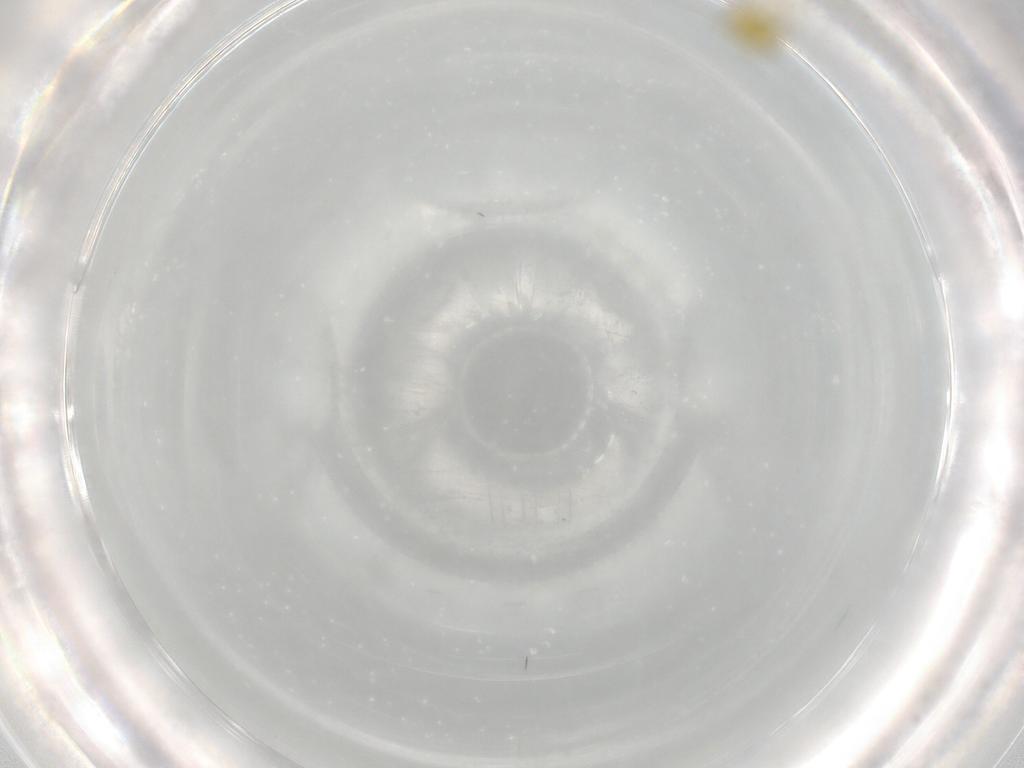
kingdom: Animalia
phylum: Arthropoda
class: Insecta
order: Psocodea
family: Lepidopsocidae
